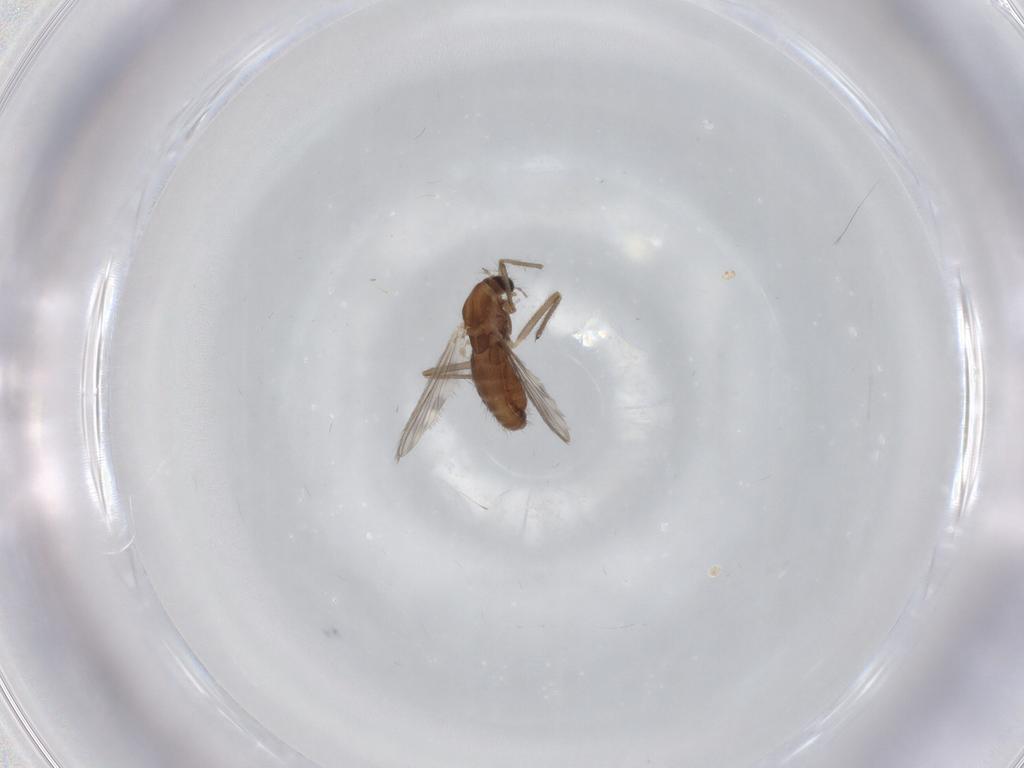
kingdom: Animalia
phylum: Arthropoda
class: Insecta
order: Diptera
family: Chironomidae
